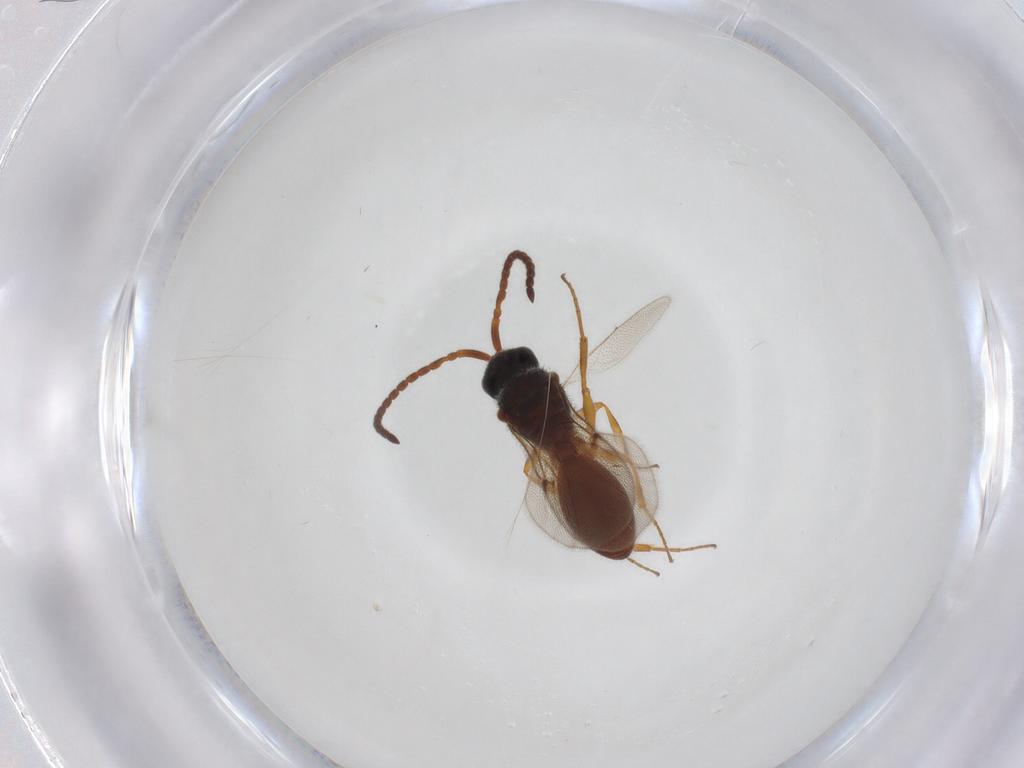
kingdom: Animalia
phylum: Arthropoda
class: Insecta
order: Hymenoptera
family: Diapriidae
